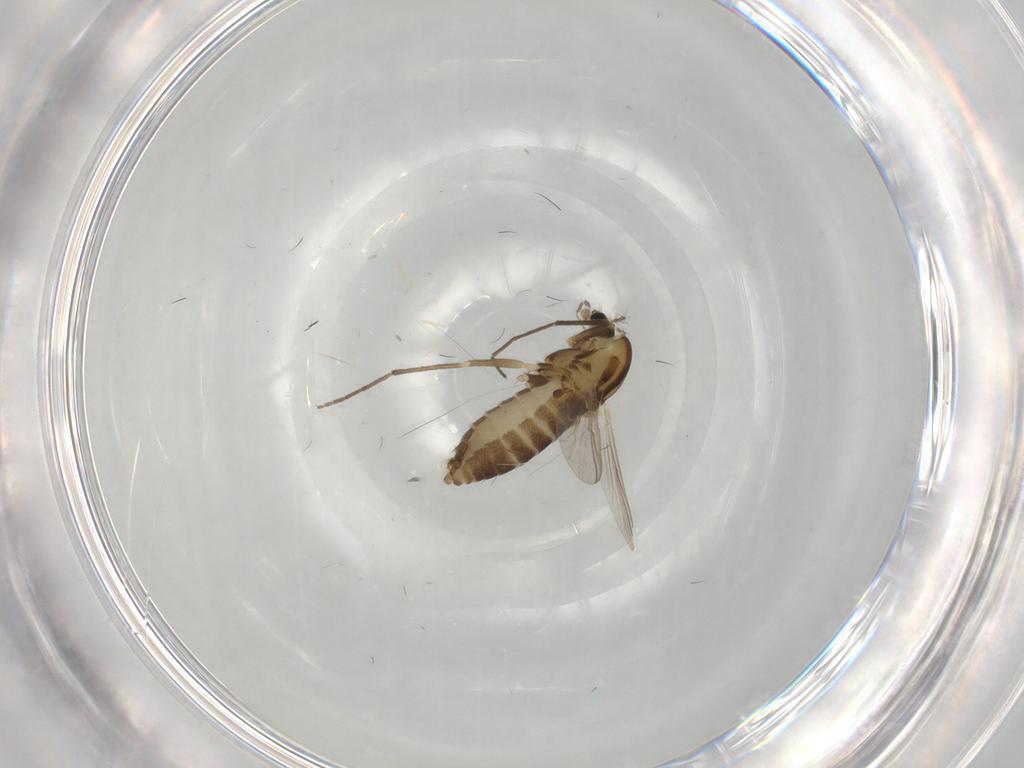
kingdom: Animalia
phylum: Arthropoda
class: Insecta
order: Diptera
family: Chironomidae
